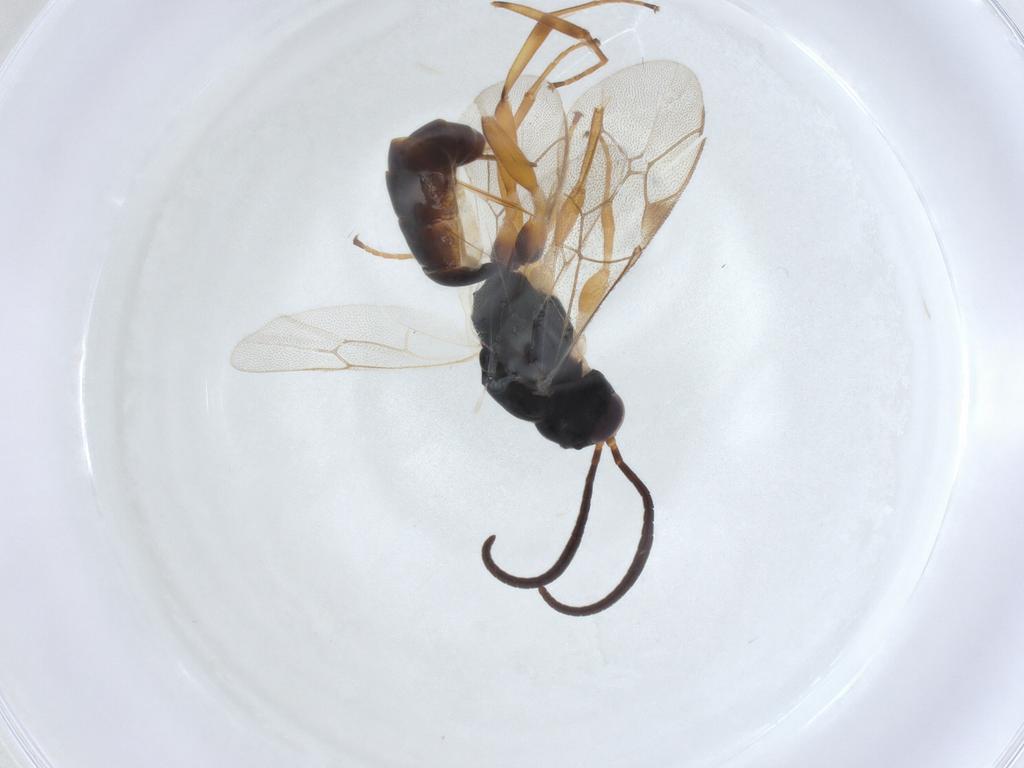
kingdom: Animalia
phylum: Arthropoda
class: Insecta
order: Hymenoptera
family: Ichneumonidae
